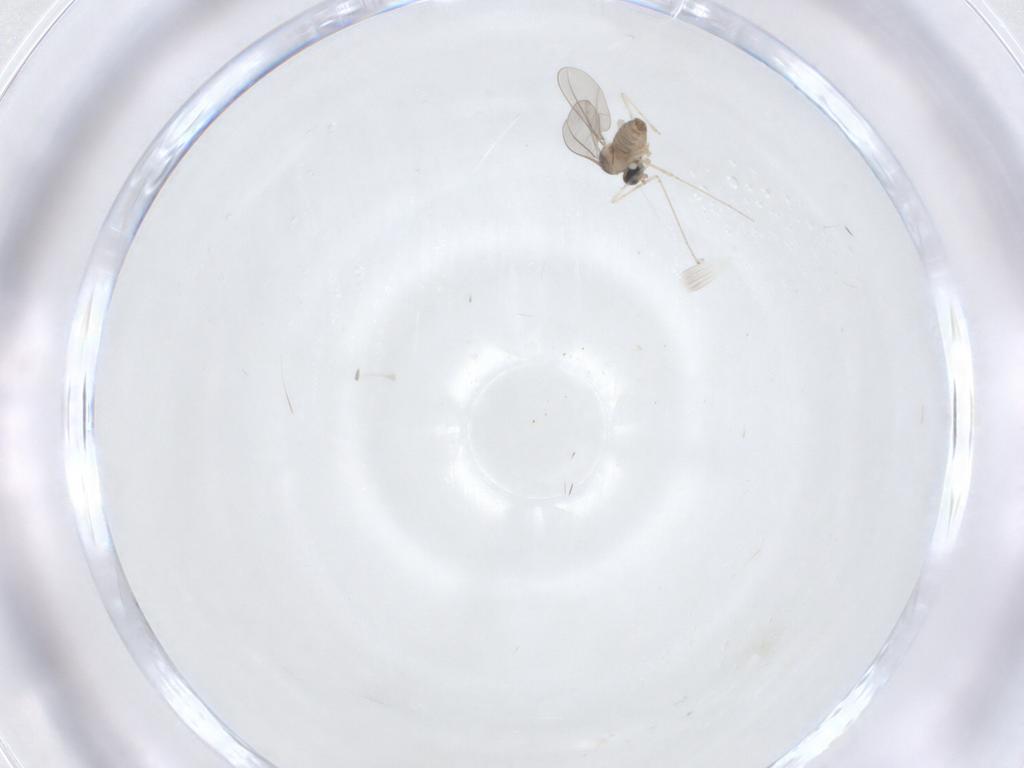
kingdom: Animalia
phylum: Arthropoda
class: Insecta
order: Diptera
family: Cecidomyiidae
